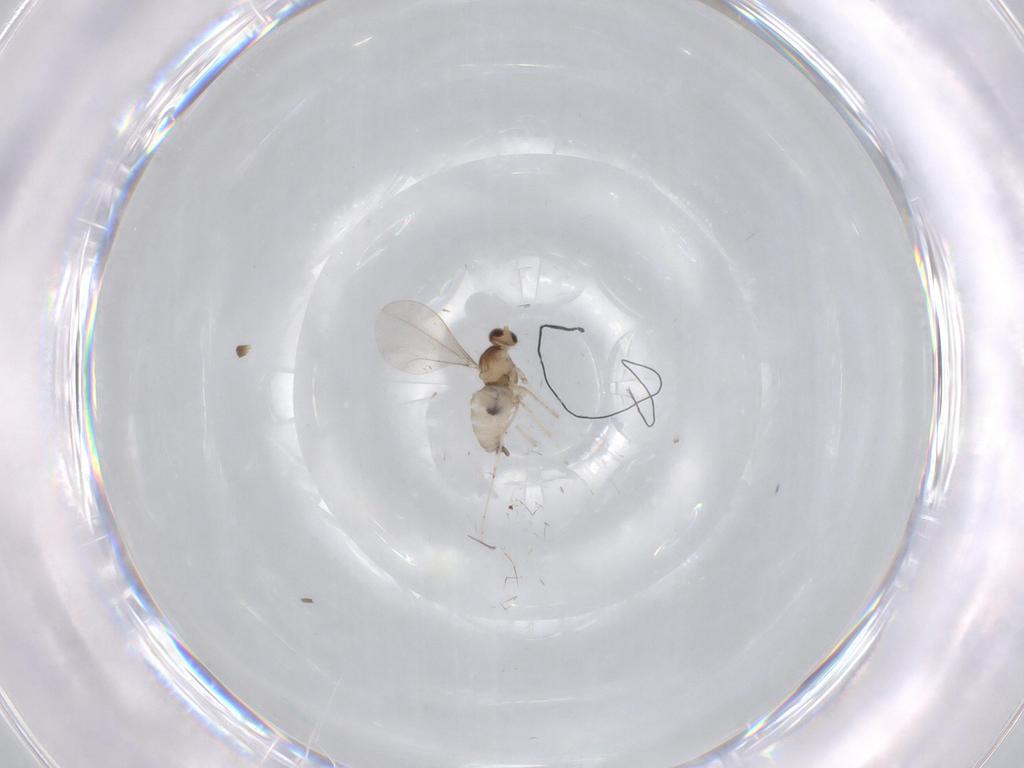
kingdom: Animalia
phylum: Arthropoda
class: Insecta
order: Diptera
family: Cecidomyiidae
